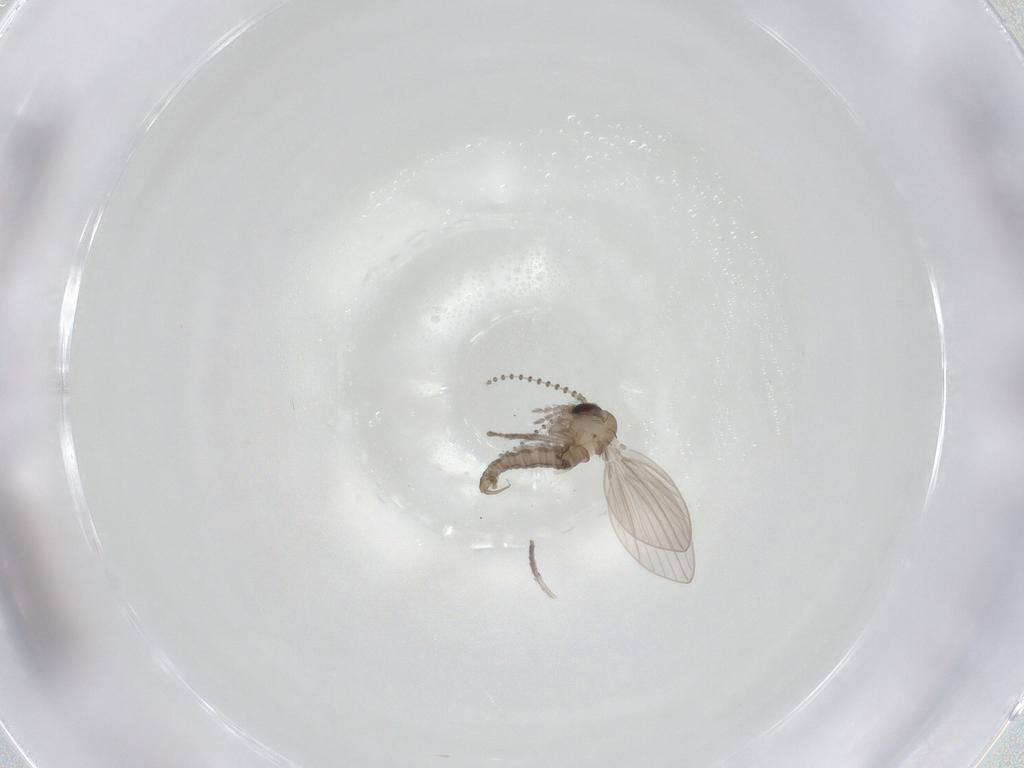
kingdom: Animalia
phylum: Arthropoda
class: Insecta
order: Diptera
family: Psychodidae
